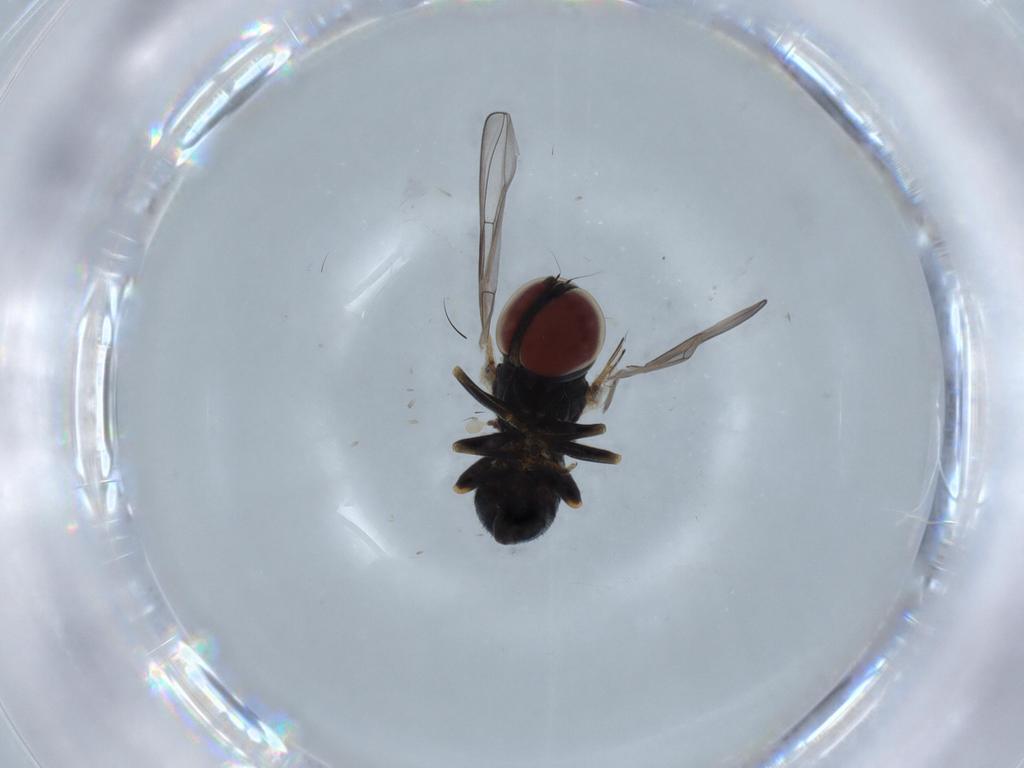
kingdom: Animalia
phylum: Arthropoda
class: Insecta
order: Diptera
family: Pipunculidae
